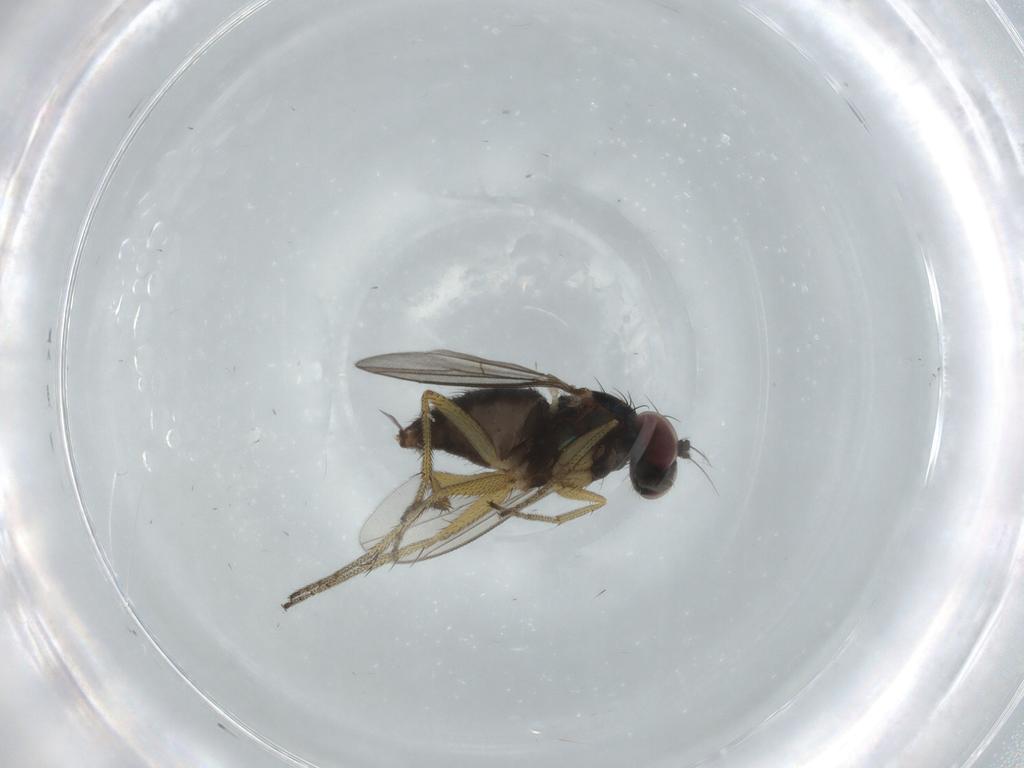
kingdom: Animalia
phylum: Arthropoda
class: Insecta
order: Diptera
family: Dolichopodidae
